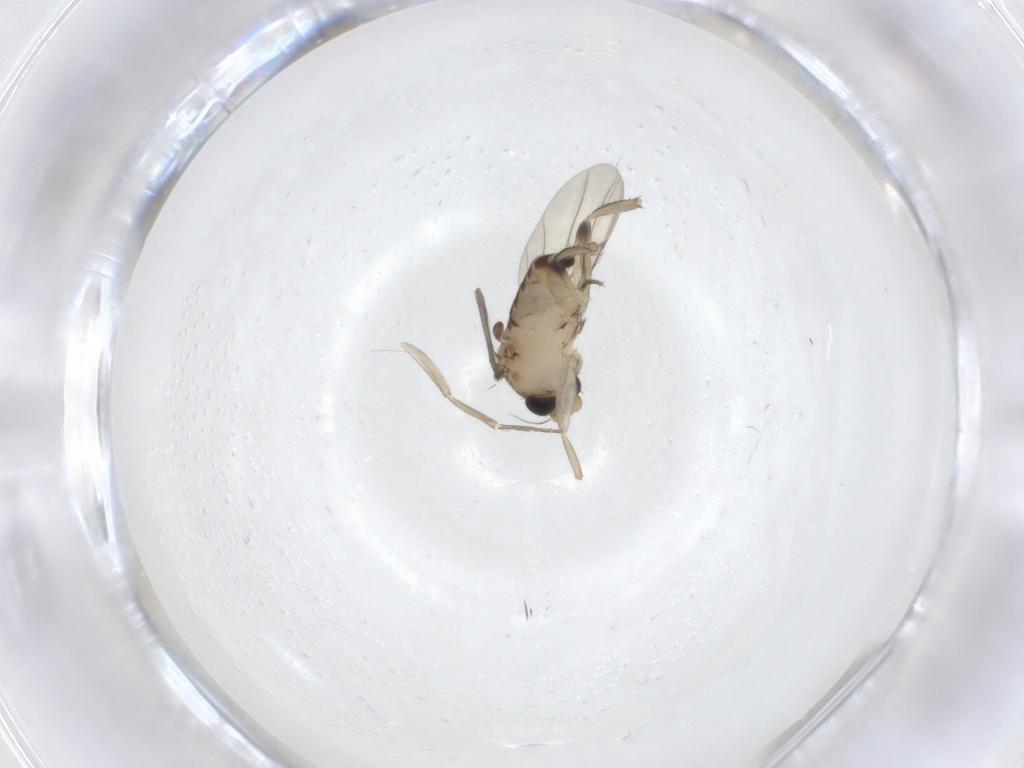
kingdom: Animalia
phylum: Arthropoda
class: Insecta
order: Diptera
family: Phoridae
